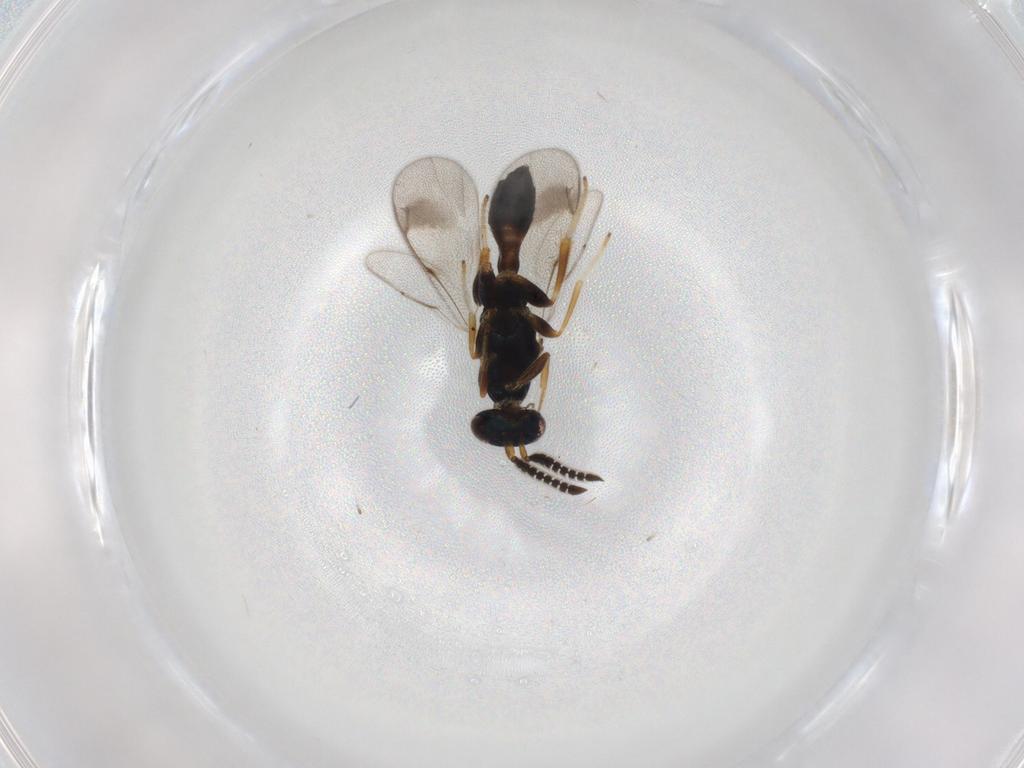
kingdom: Animalia
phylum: Arthropoda
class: Insecta
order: Hymenoptera
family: Cleonyminae
